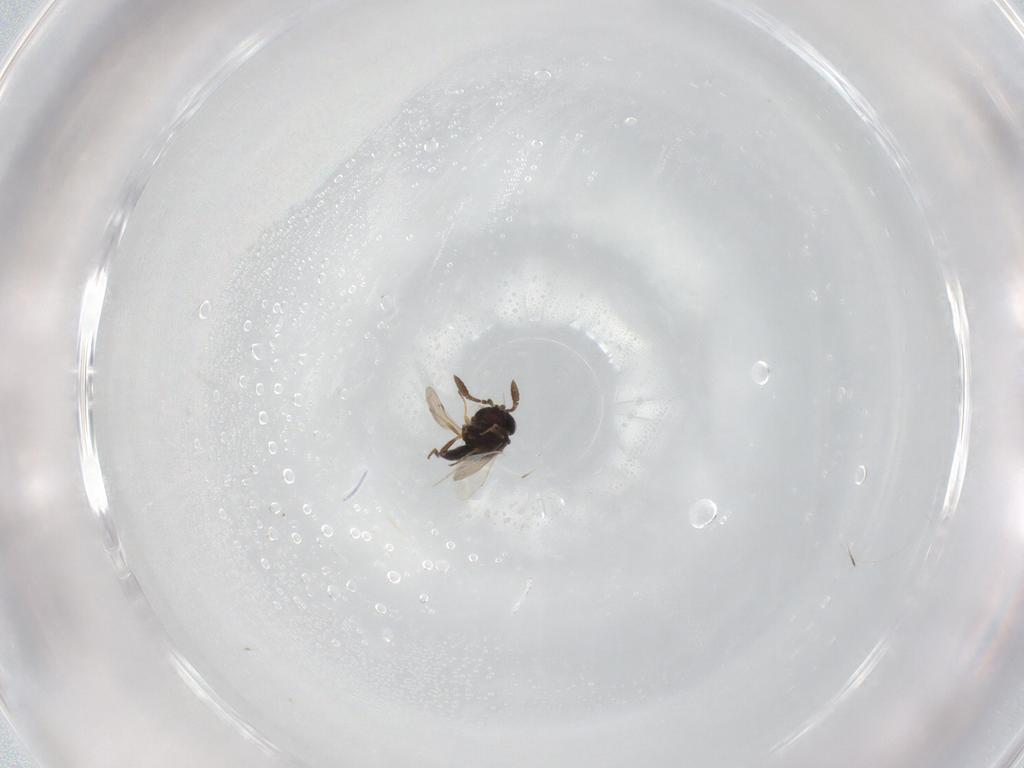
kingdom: Animalia
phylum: Arthropoda
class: Insecta
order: Hymenoptera
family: Scelionidae
